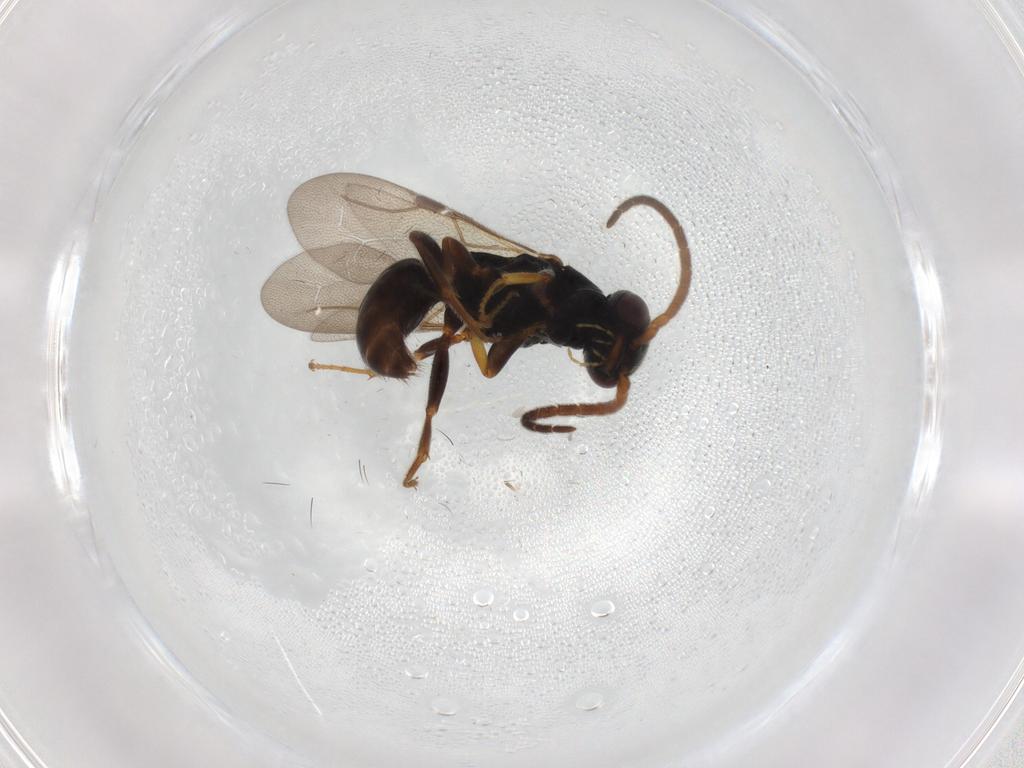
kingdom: Animalia
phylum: Arthropoda
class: Insecta
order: Hymenoptera
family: Bethylidae
